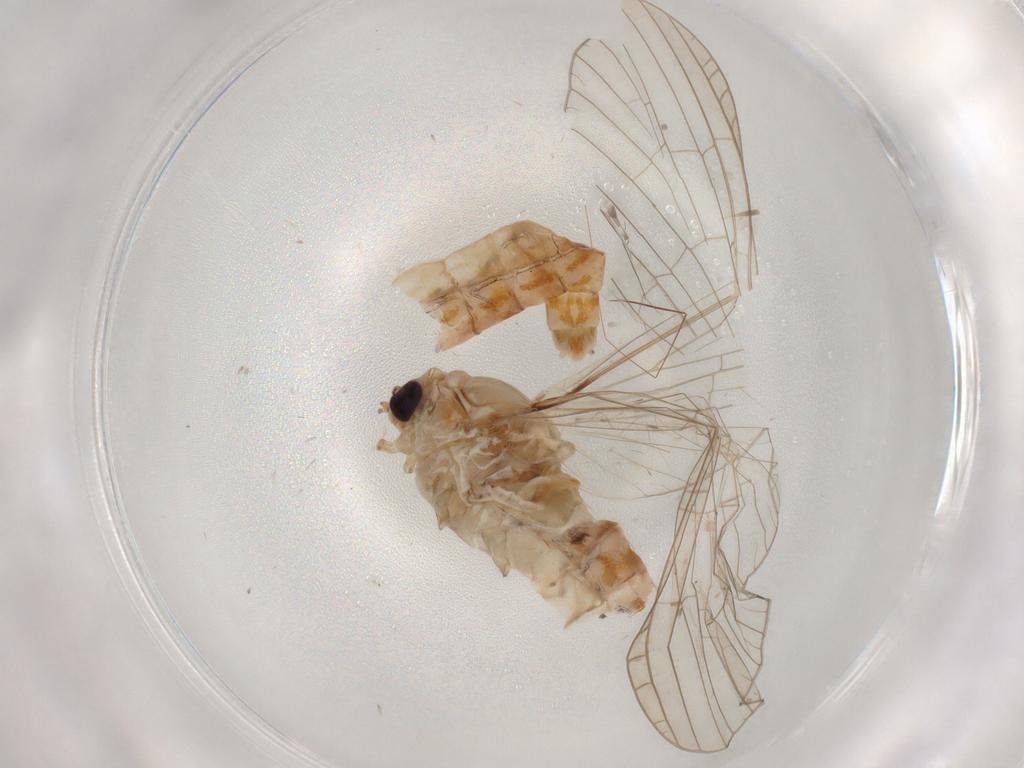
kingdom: Animalia
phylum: Arthropoda
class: Insecta
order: Ephemeroptera
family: Baetidae
